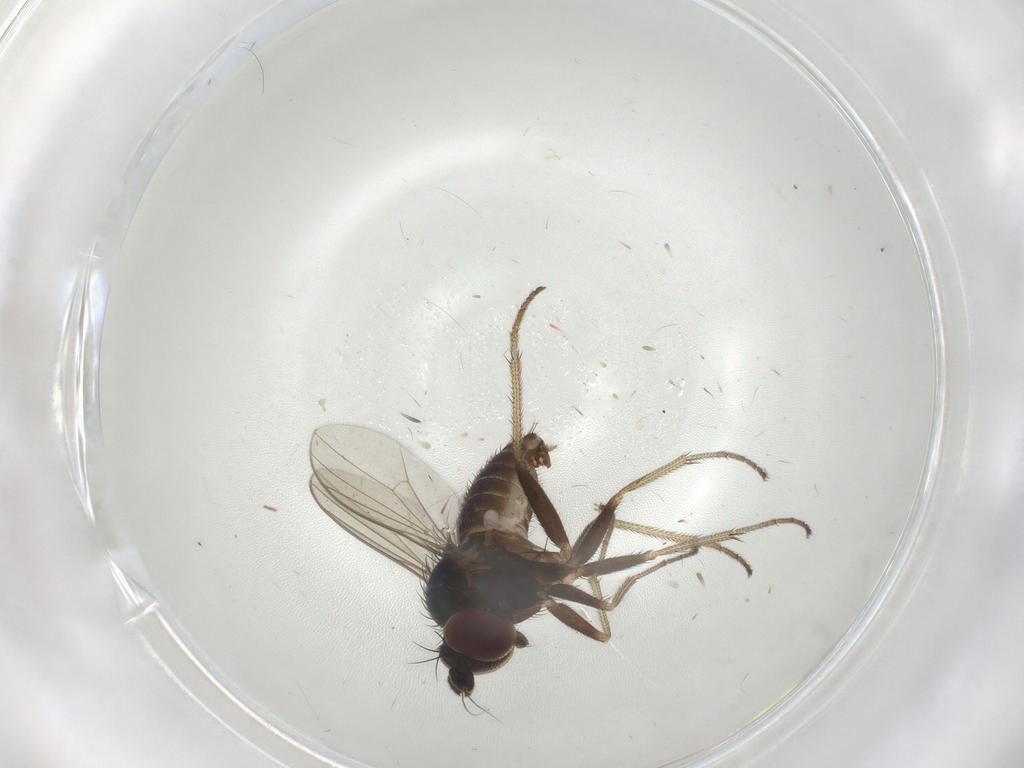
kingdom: Animalia
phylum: Arthropoda
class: Insecta
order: Diptera
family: Dolichopodidae
